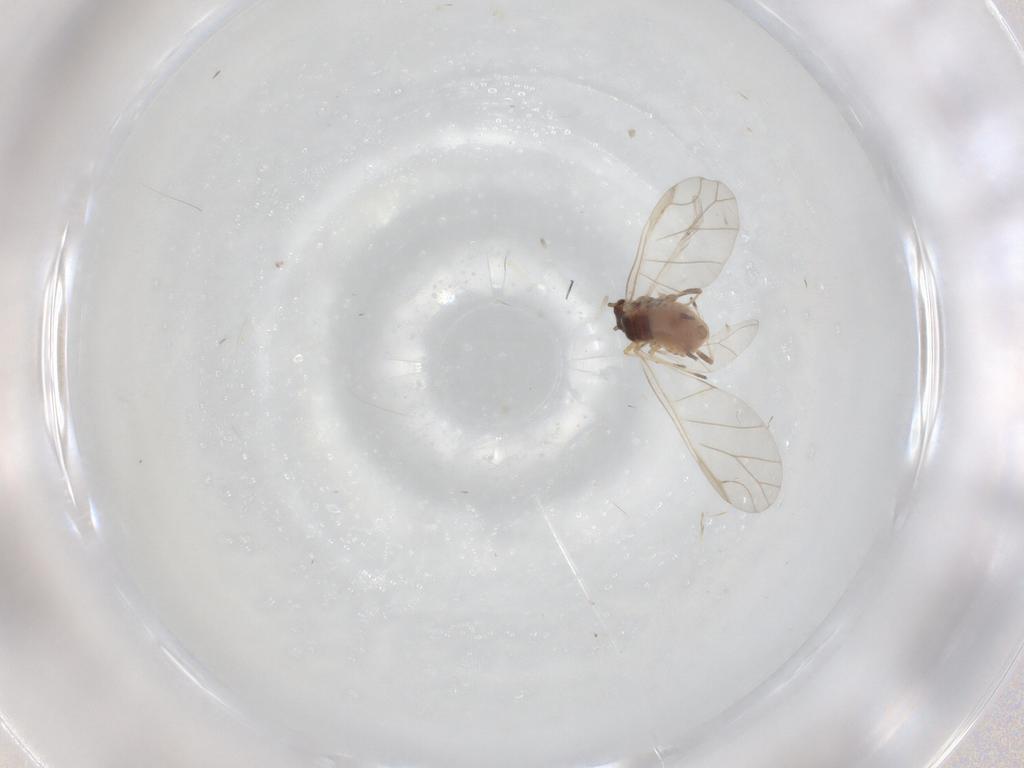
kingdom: Animalia
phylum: Arthropoda
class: Insecta
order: Hemiptera
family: Aphididae
